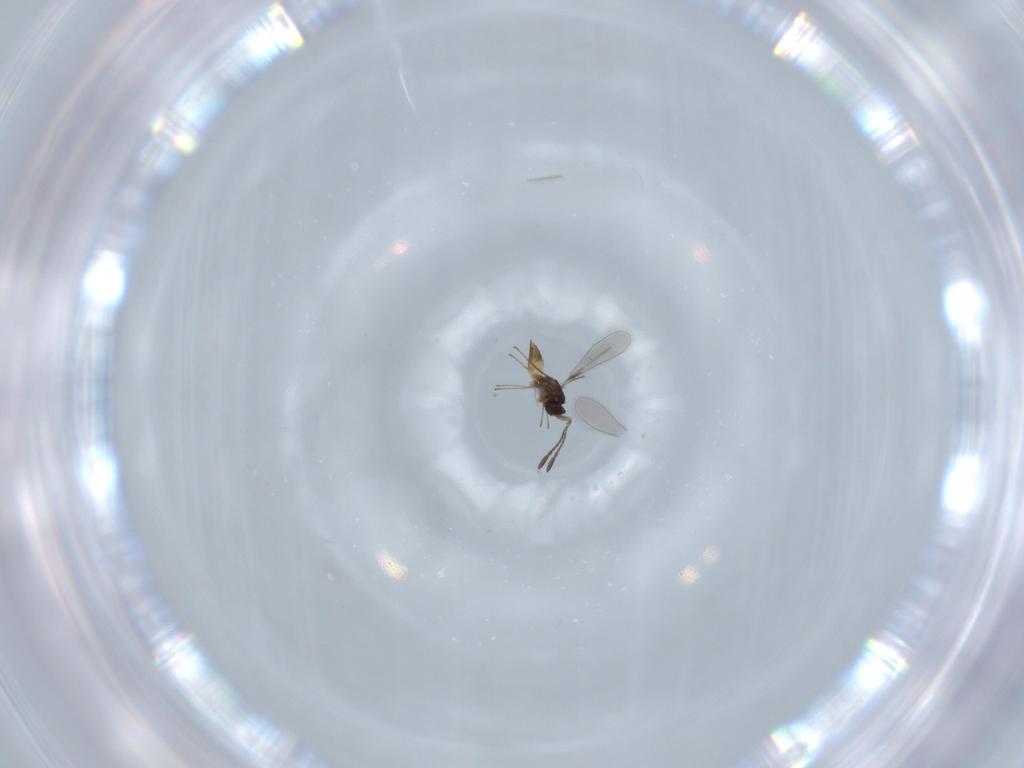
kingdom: Animalia
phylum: Arthropoda
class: Insecta
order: Hymenoptera
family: Mymaridae
